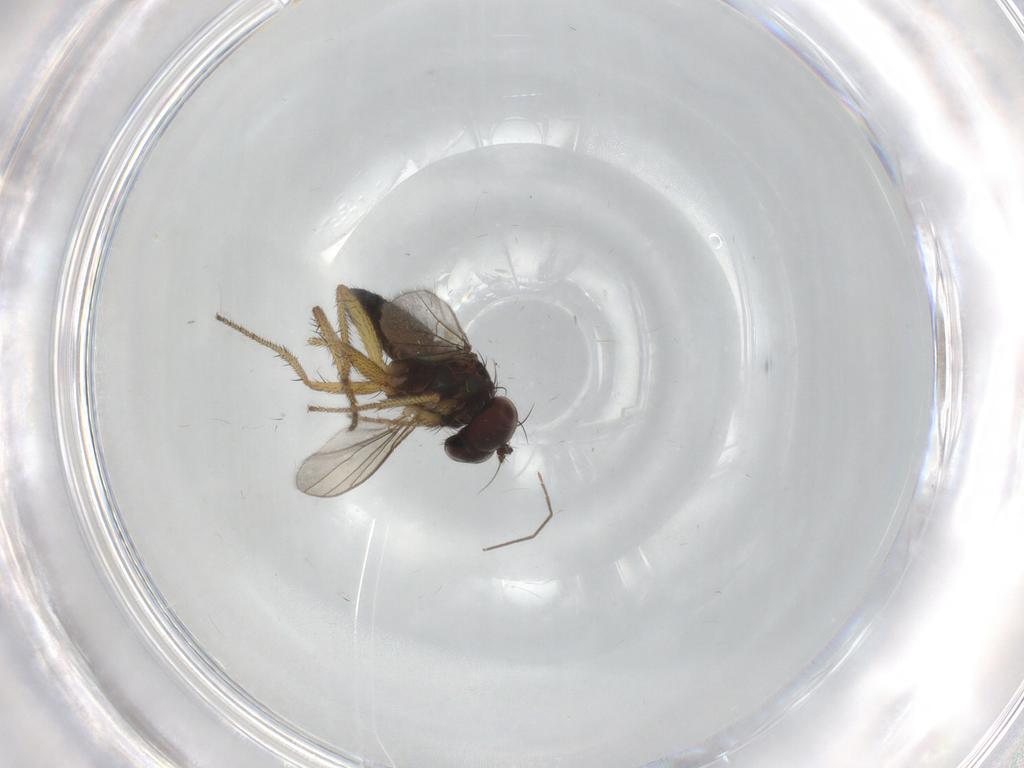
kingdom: Animalia
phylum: Arthropoda
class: Insecta
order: Diptera
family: Chironomidae
